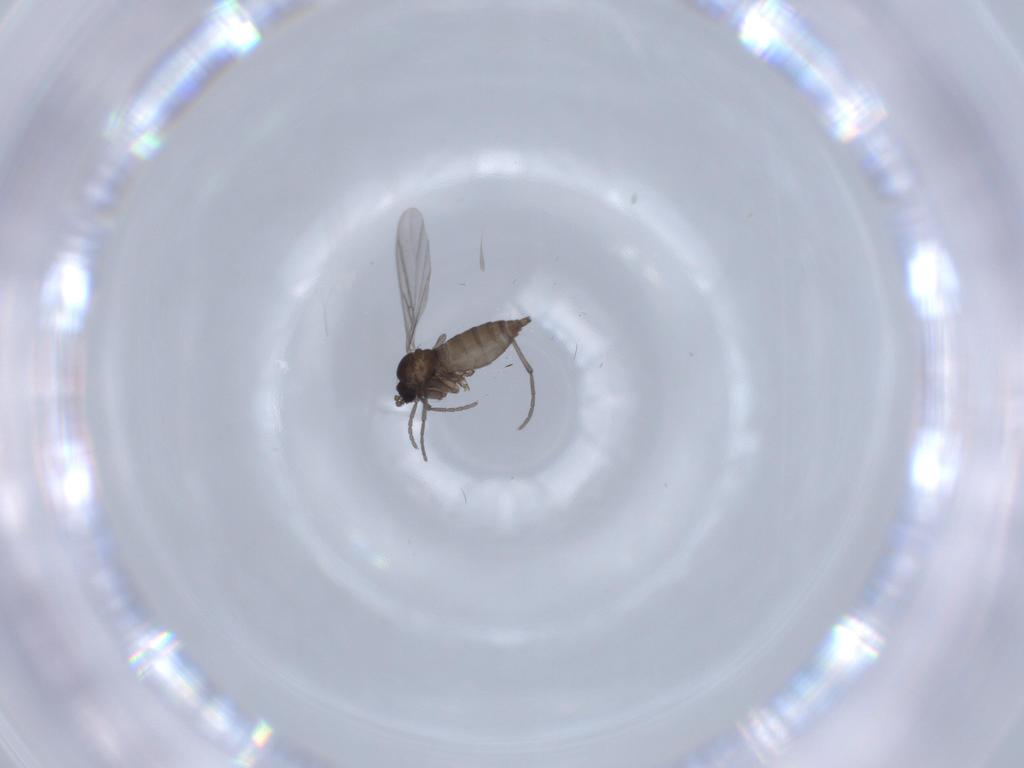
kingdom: Animalia
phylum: Arthropoda
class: Insecta
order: Diptera
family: Sciaridae
